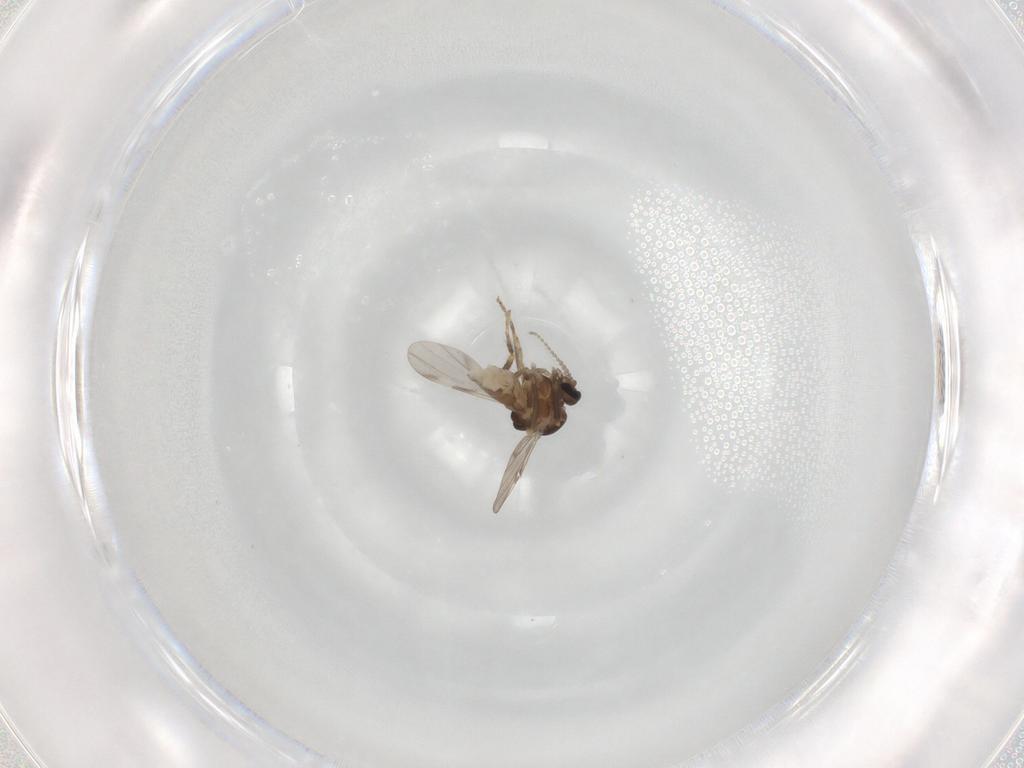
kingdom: Animalia
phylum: Arthropoda
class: Insecta
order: Diptera
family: Ceratopogonidae
